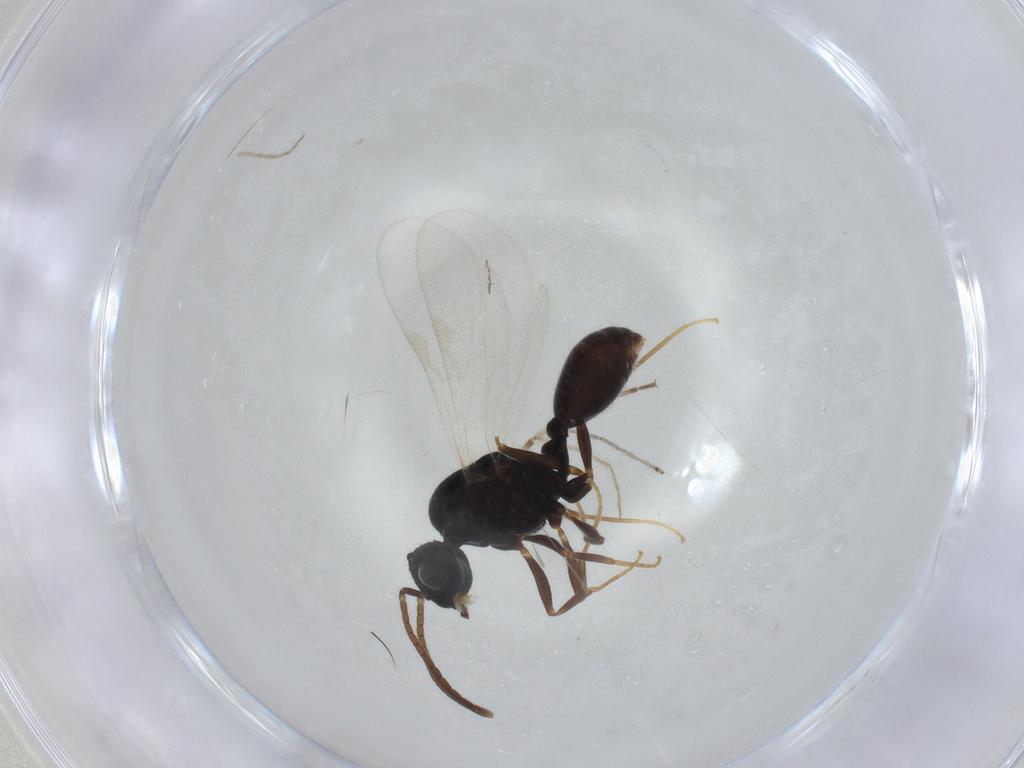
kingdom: Animalia
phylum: Arthropoda
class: Insecta
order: Hymenoptera
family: Formicidae
